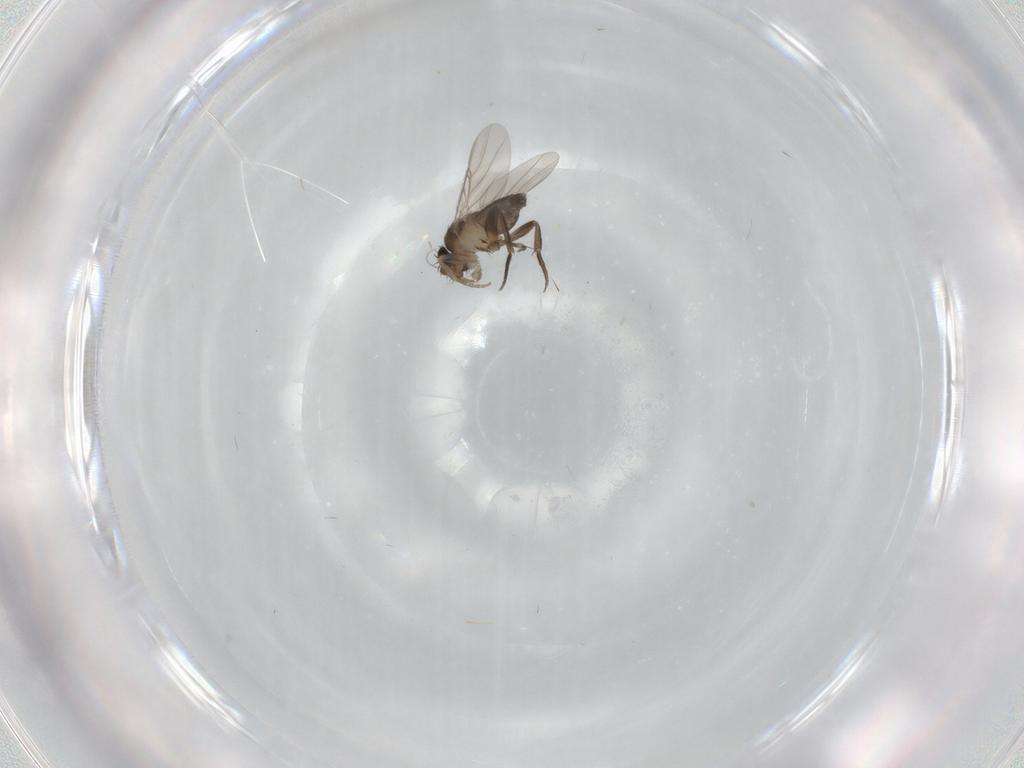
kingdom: Animalia
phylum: Arthropoda
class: Insecta
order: Diptera
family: Phoridae
